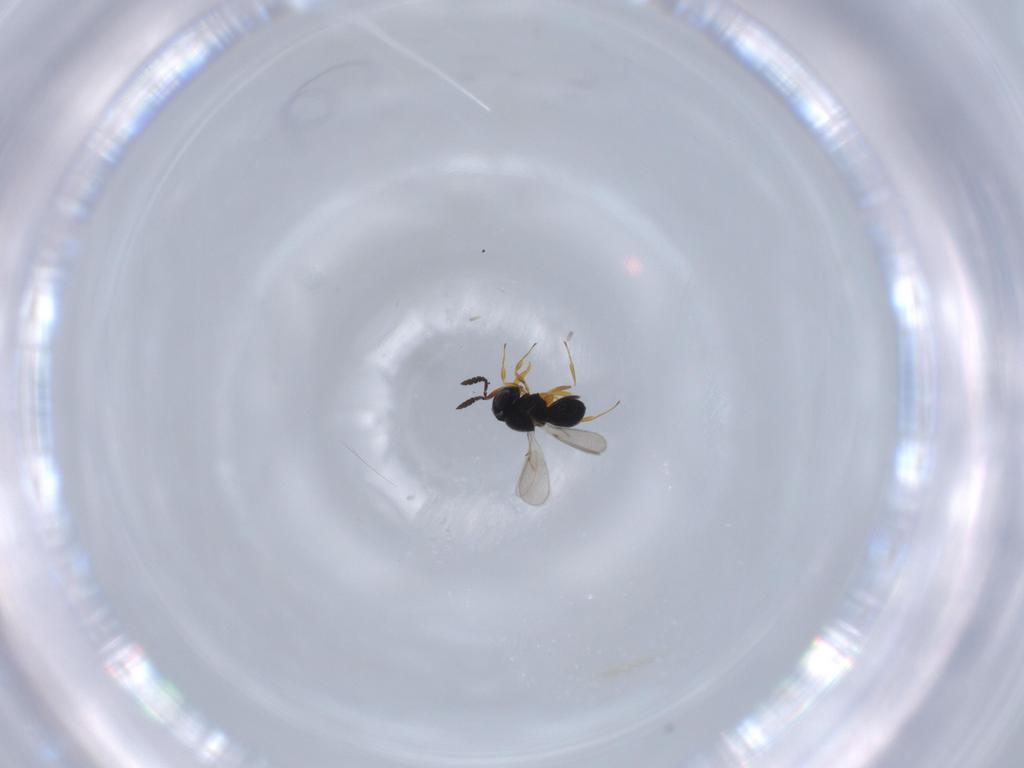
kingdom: Animalia
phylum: Arthropoda
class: Insecta
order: Hymenoptera
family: Scelionidae
